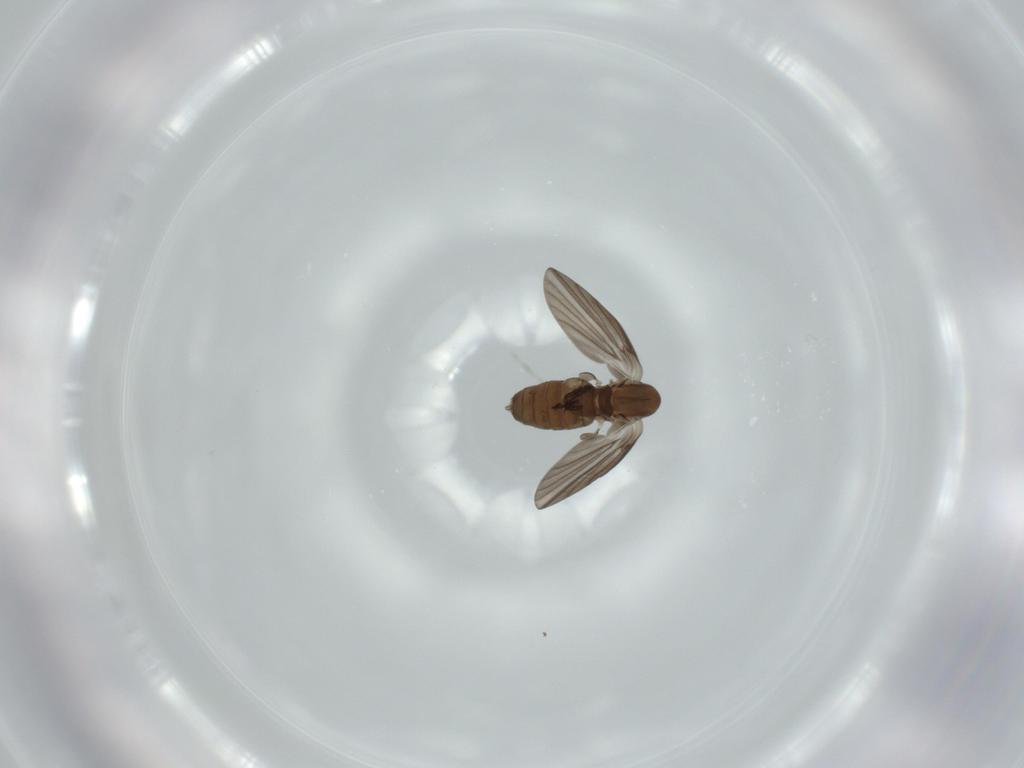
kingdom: Animalia
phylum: Arthropoda
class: Insecta
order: Diptera
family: Psychodidae
